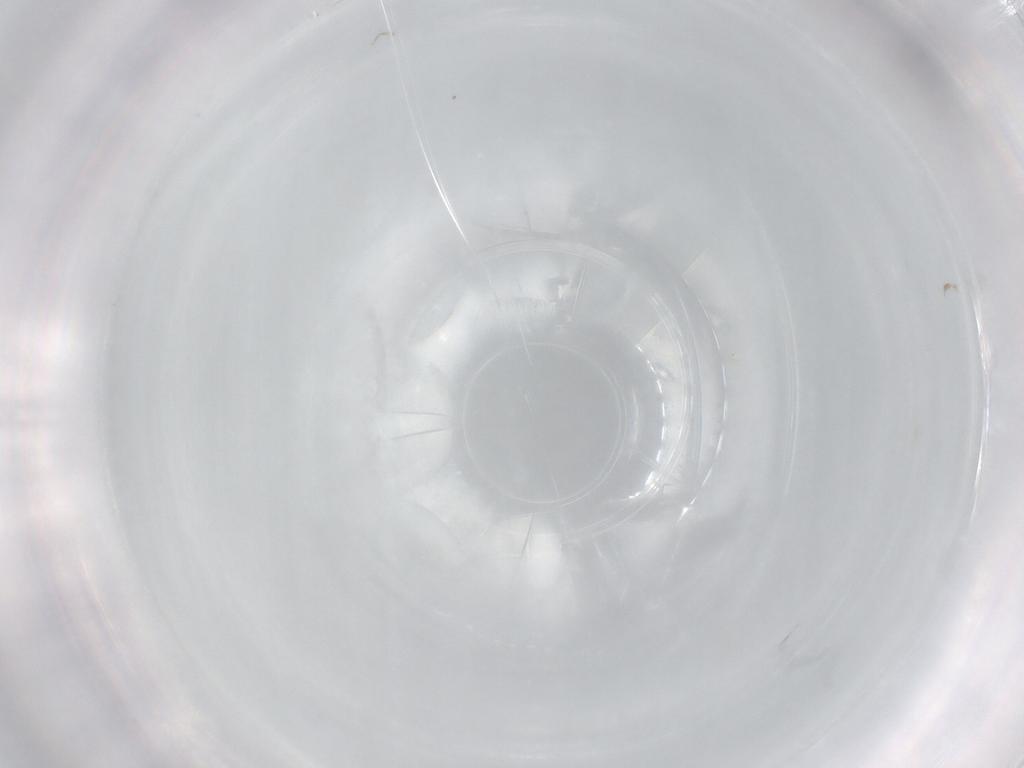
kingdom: Animalia
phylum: Arthropoda
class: Collembola
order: Entomobryomorpha
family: Entomobryidae
